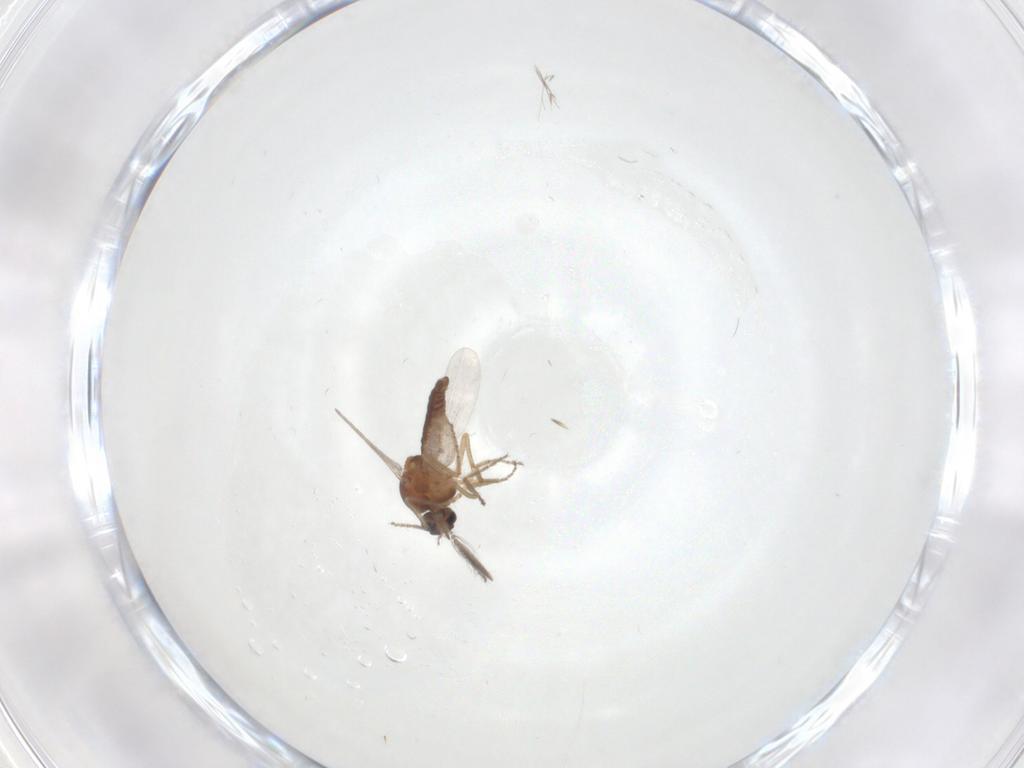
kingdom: Animalia
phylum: Arthropoda
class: Insecta
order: Diptera
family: Ceratopogonidae
